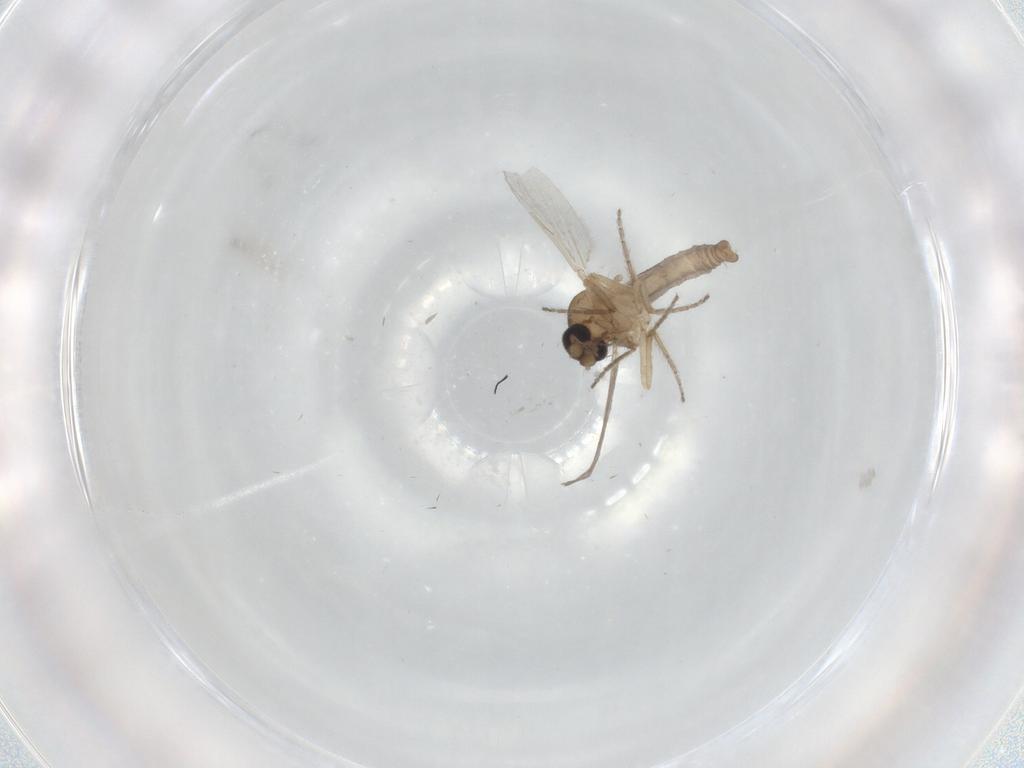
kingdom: Animalia
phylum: Arthropoda
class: Insecta
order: Diptera
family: Ceratopogonidae
